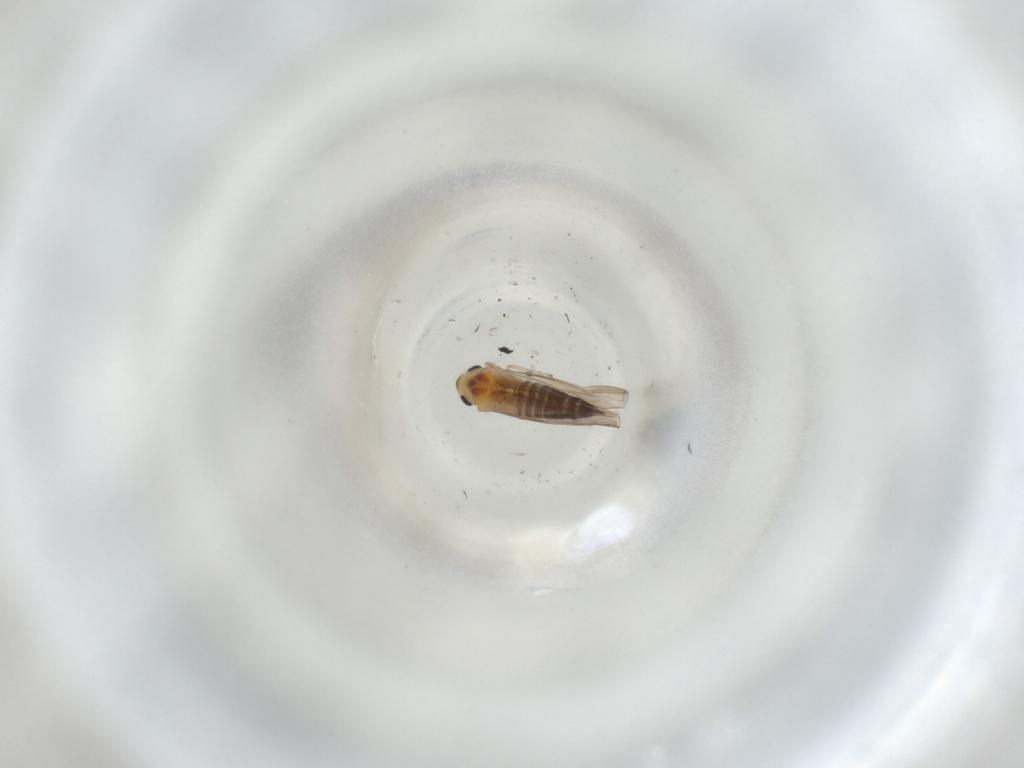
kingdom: Animalia
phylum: Arthropoda
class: Insecta
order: Hemiptera
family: Cicadellidae
